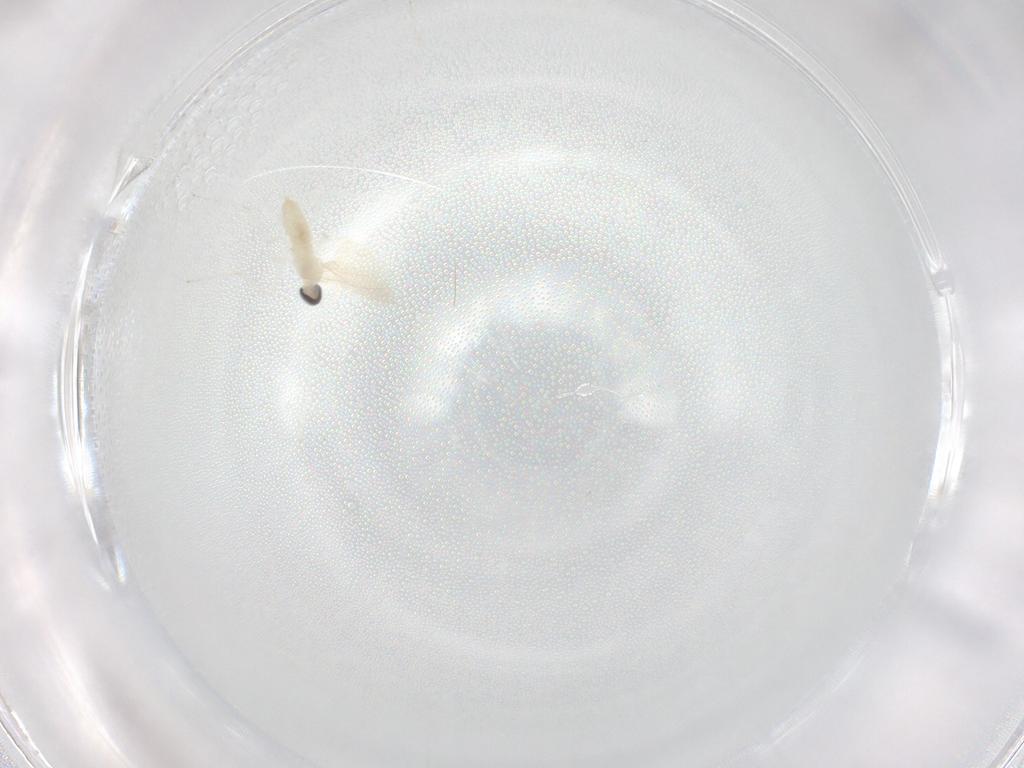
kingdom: Animalia
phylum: Arthropoda
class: Insecta
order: Diptera
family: Cecidomyiidae
